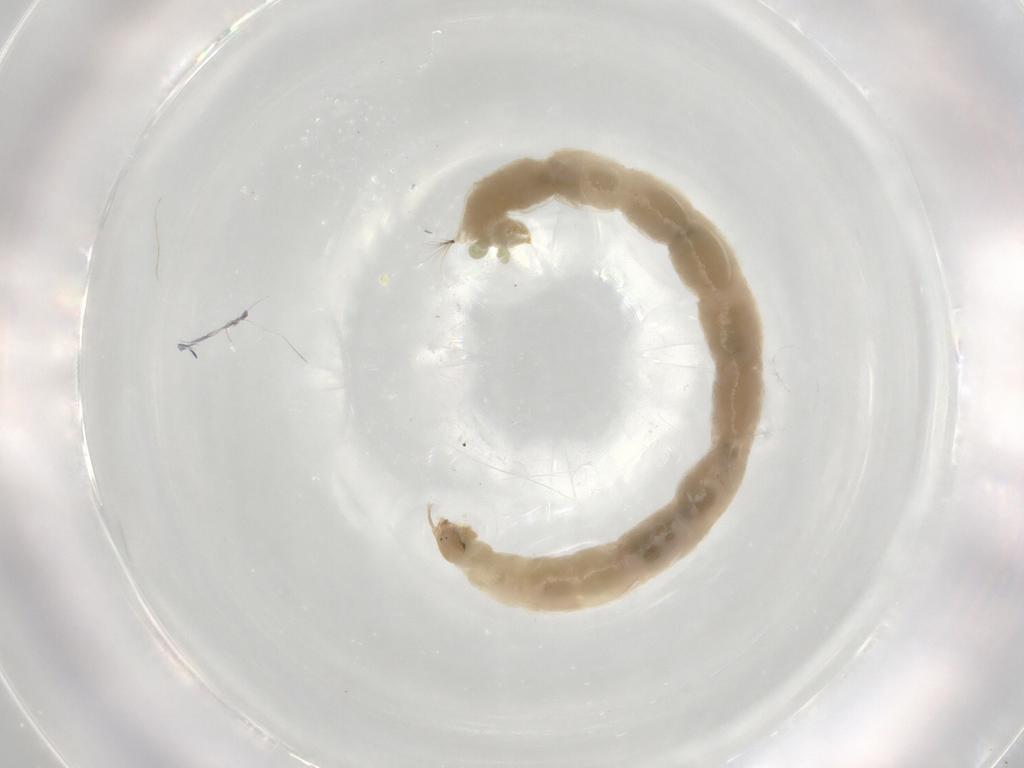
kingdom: Animalia
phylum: Arthropoda
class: Insecta
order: Diptera
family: Chironomidae
